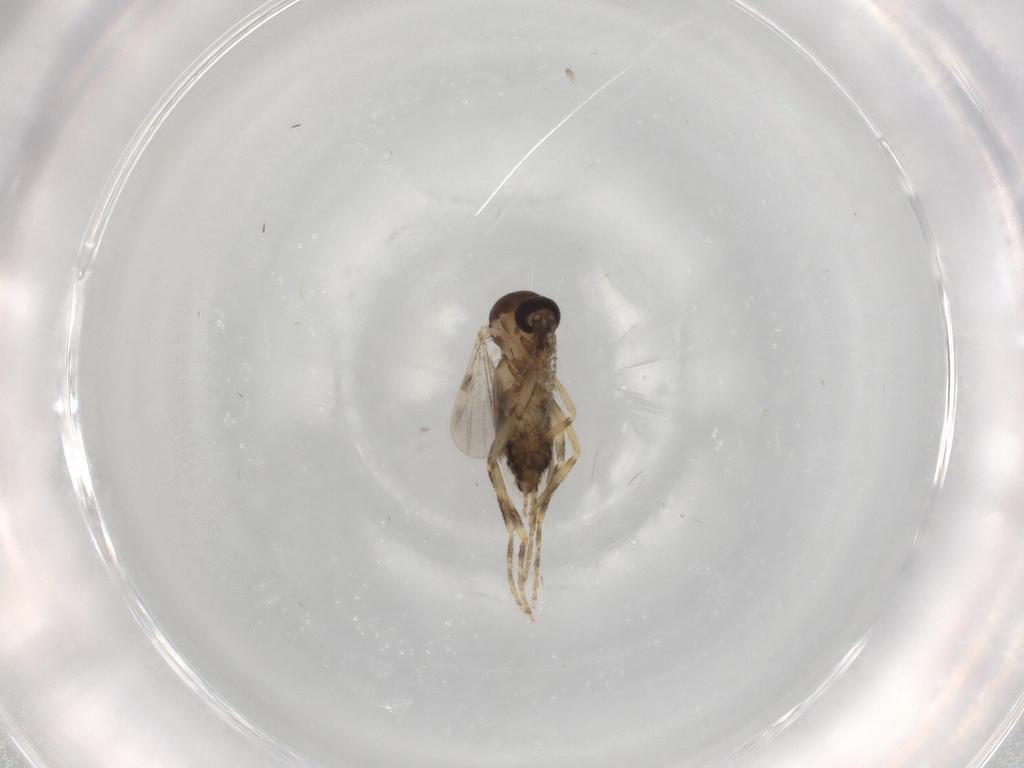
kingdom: Animalia
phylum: Arthropoda
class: Insecta
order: Diptera
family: Ceratopogonidae
